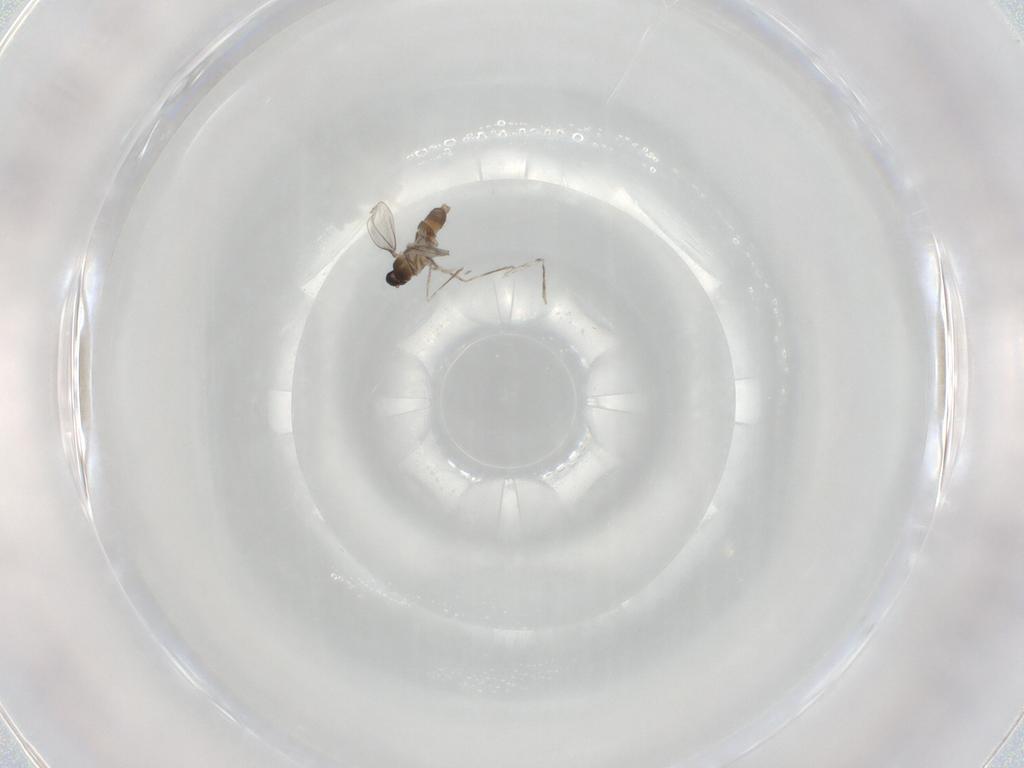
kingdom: Animalia
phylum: Arthropoda
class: Insecta
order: Diptera
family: Cecidomyiidae
